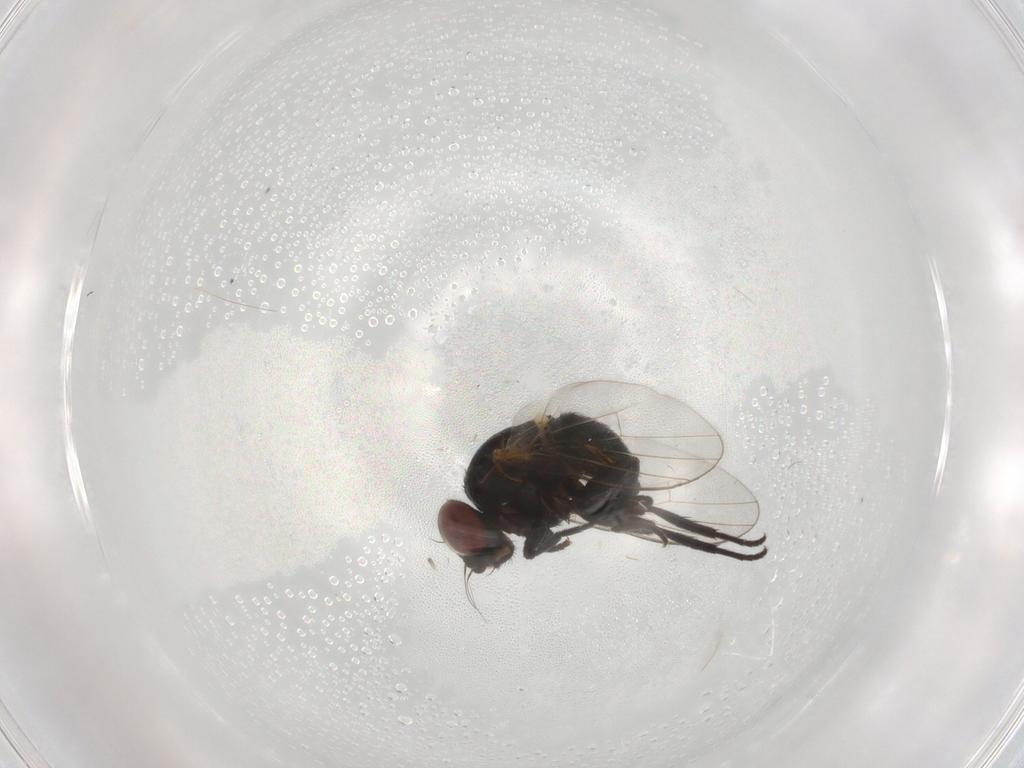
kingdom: Animalia
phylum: Arthropoda
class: Insecta
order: Diptera
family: Agromyzidae
